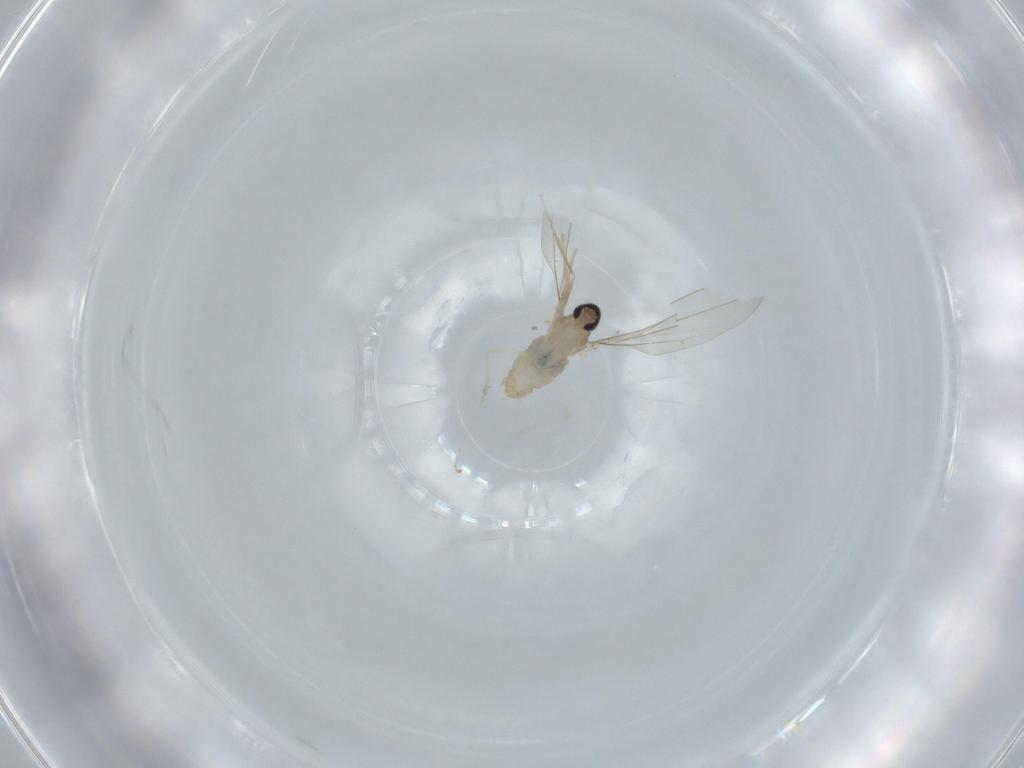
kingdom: Animalia
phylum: Arthropoda
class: Insecta
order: Diptera
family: Cecidomyiidae
